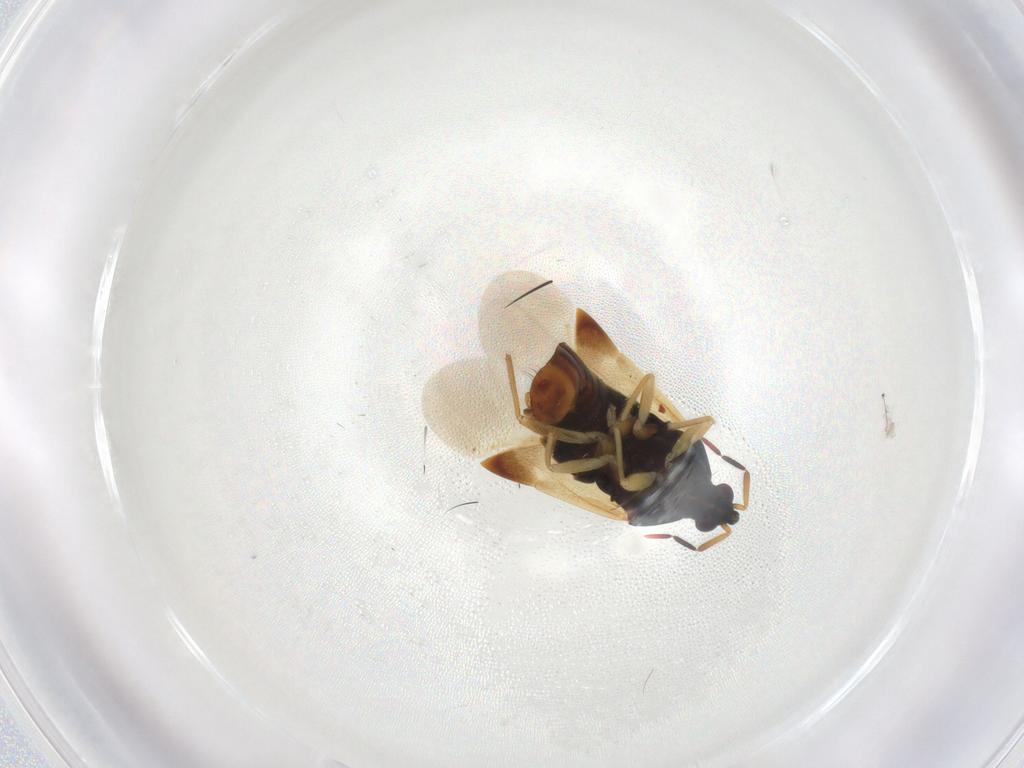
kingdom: Animalia
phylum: Arthropoda
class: Insecta
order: Hemiptera
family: Anthocoridae
